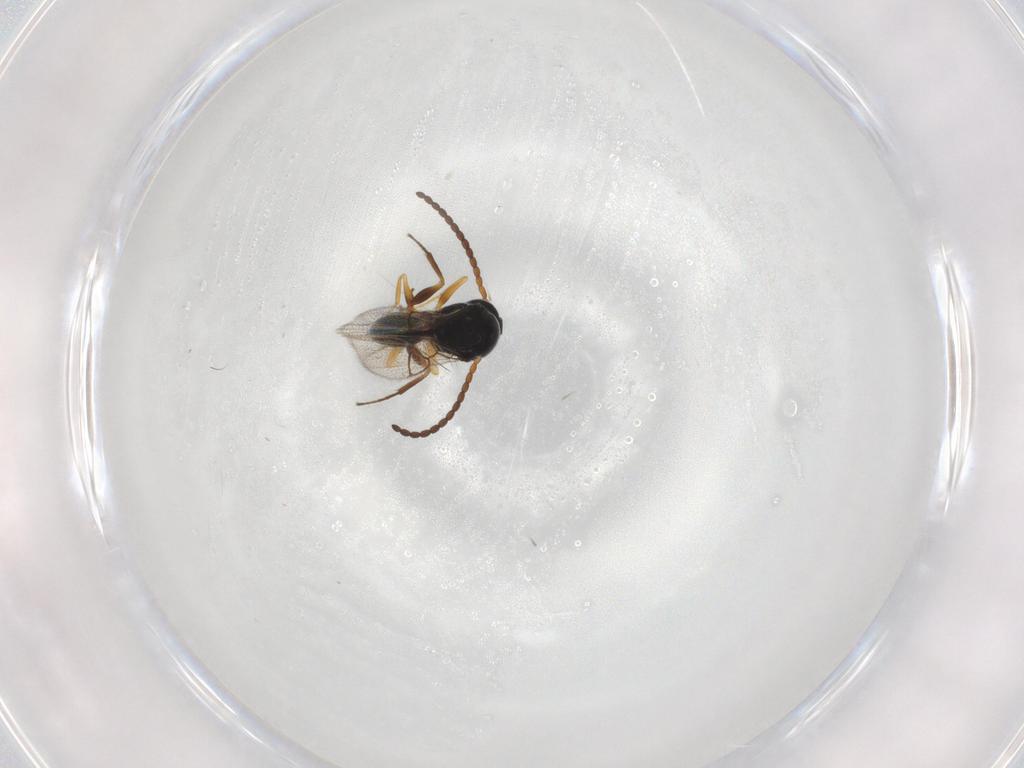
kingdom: Animalia
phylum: Arthropoda
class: Insecta
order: Hymenoptera
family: Figitidae
